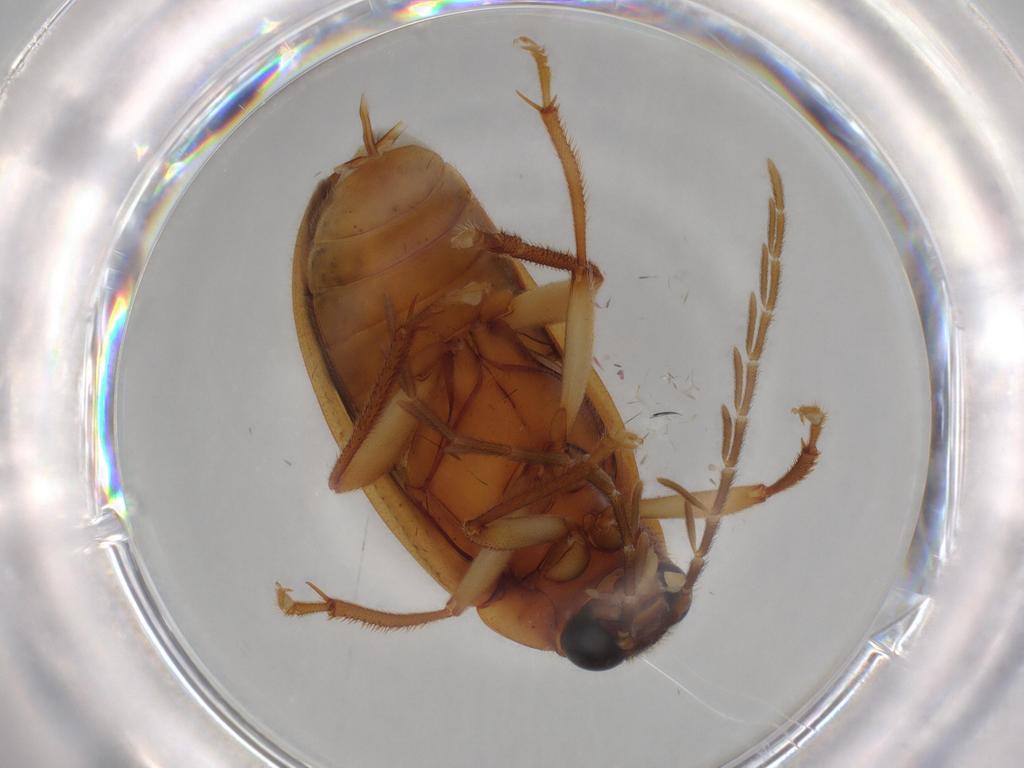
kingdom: Animalia
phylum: Arthropoda
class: Insecta
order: Coleoptera
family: Ptilodactylidae
